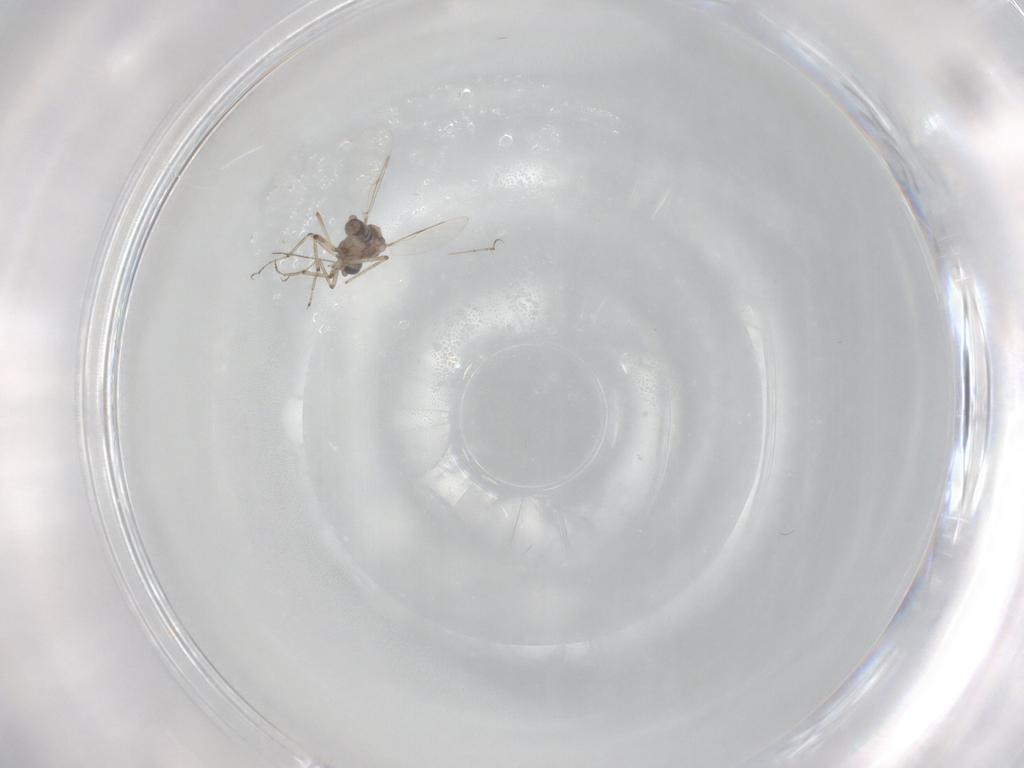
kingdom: Animalia
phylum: Arthropoda
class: Insecta
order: Diptera
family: Ceratopogonidae
